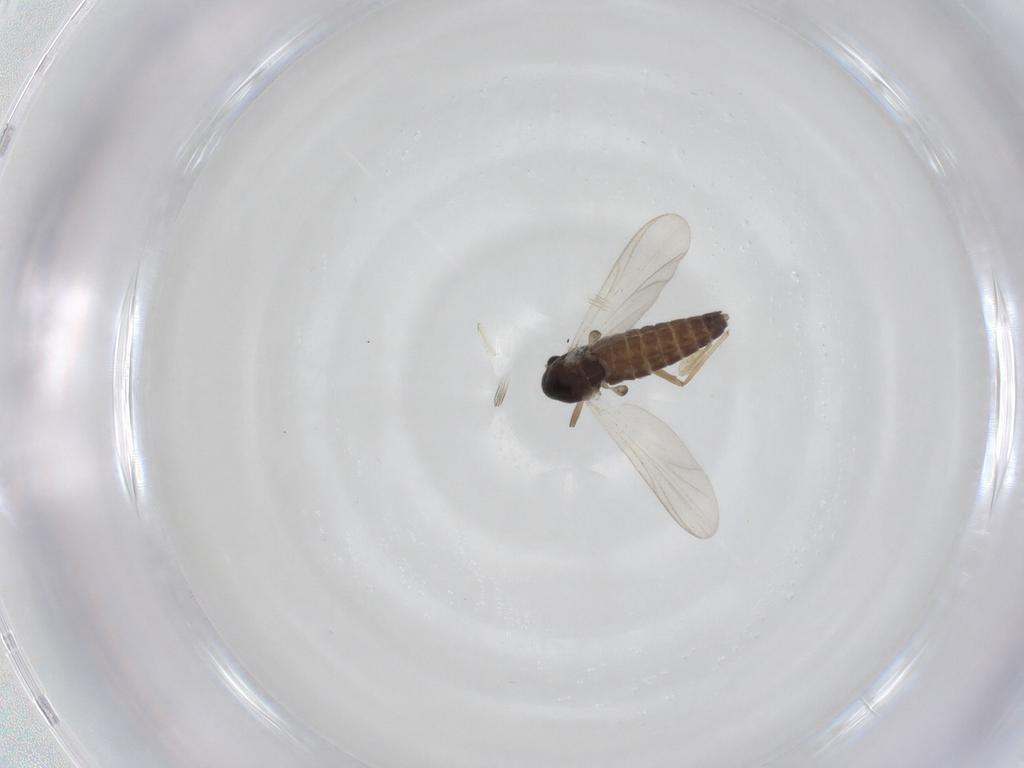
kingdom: Animalia
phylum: Arthropoda
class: Insecta
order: Diptera
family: Chironomidae
